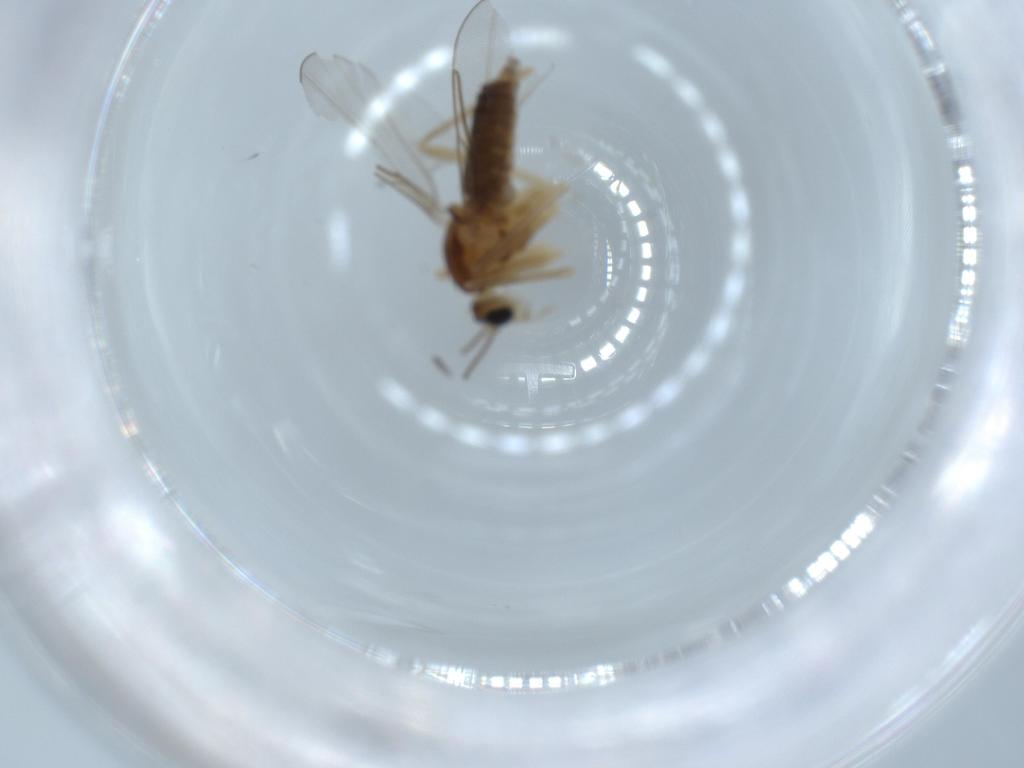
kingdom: Animalia
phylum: Arthropoda
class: Insecta
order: Diptera
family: Cecidomyiidae
